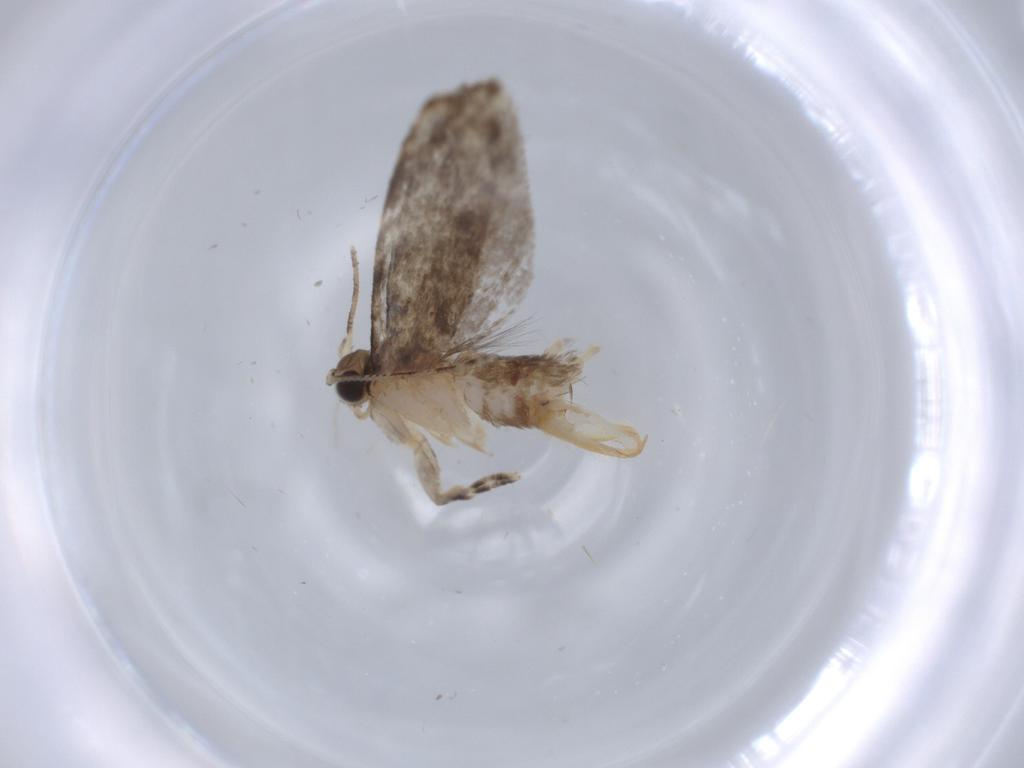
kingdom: Animalia
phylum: Arthropoda
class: Insecta
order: Lepidoptera
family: Tineidae
